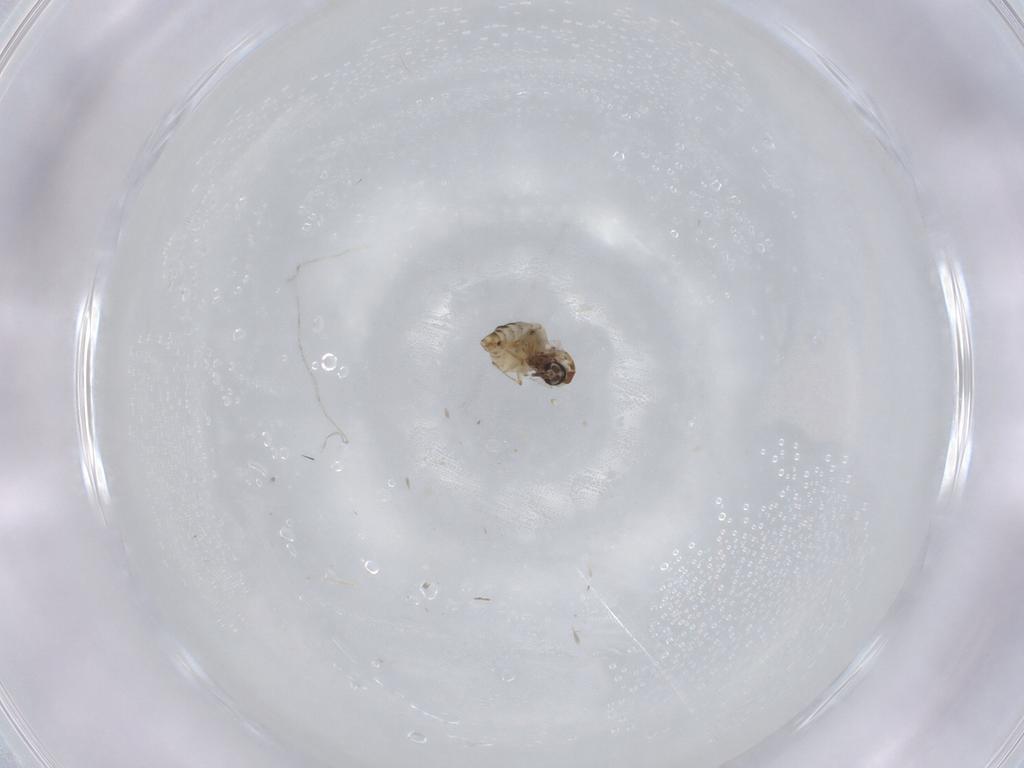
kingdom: Animalia
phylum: Arthropoda
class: Insecta
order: Diptera
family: Ceratopogonidae
